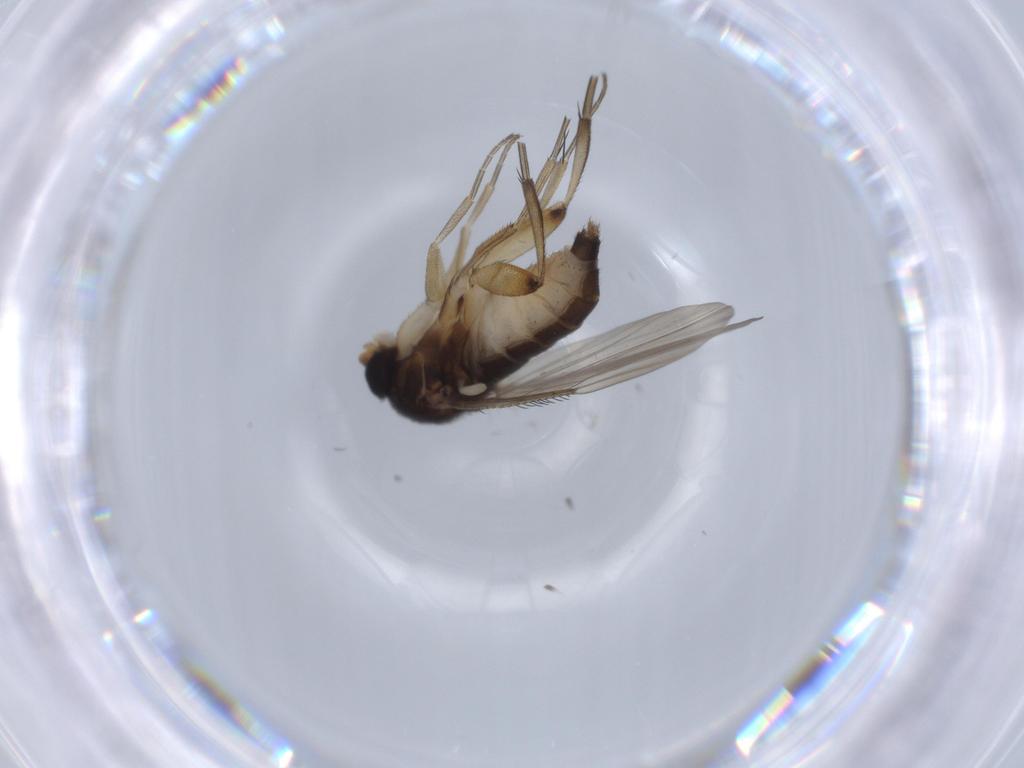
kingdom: Animalia
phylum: Arthropoda
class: Insecta
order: Diptera
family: Phoridae
